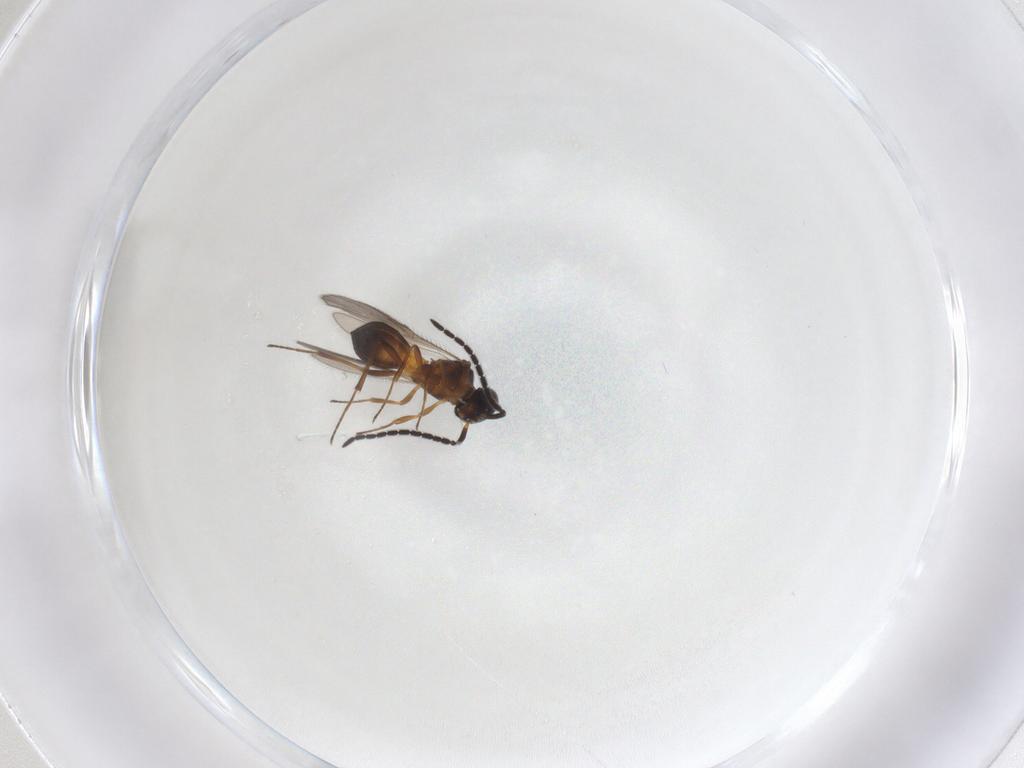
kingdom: Animalia
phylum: Arthropoda
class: Insecta
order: Hymenoptera
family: Scelionidae
